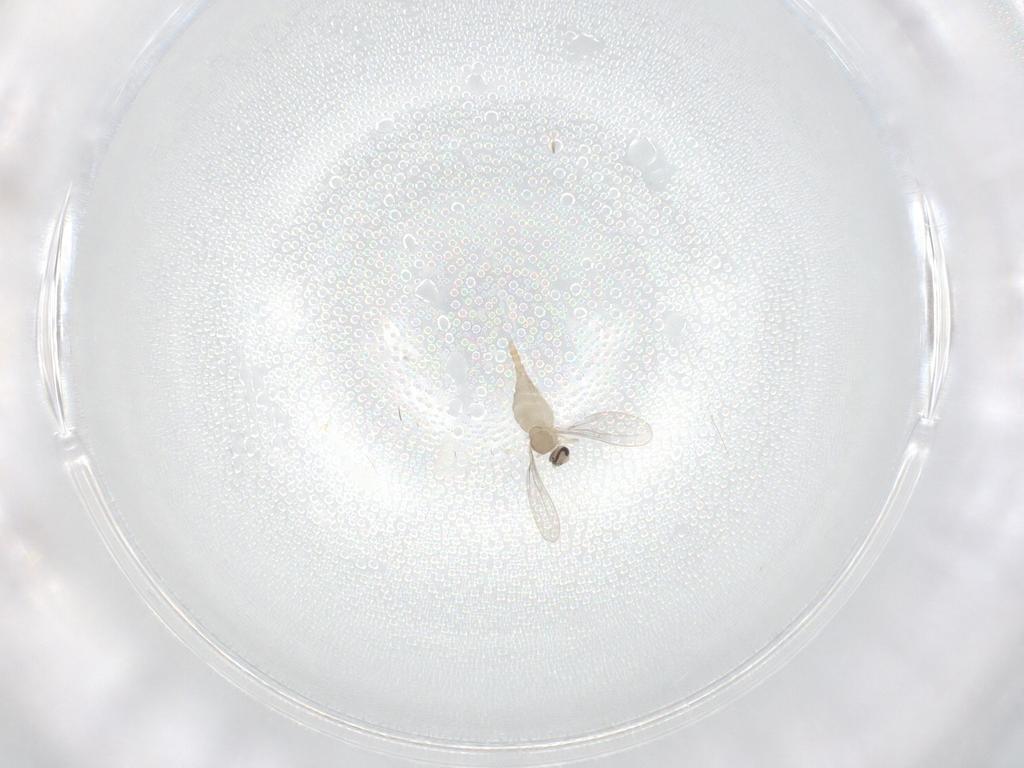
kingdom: Animalia
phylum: Arthropoda
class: Insecta
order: Diptera
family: Cecidomyiidae
